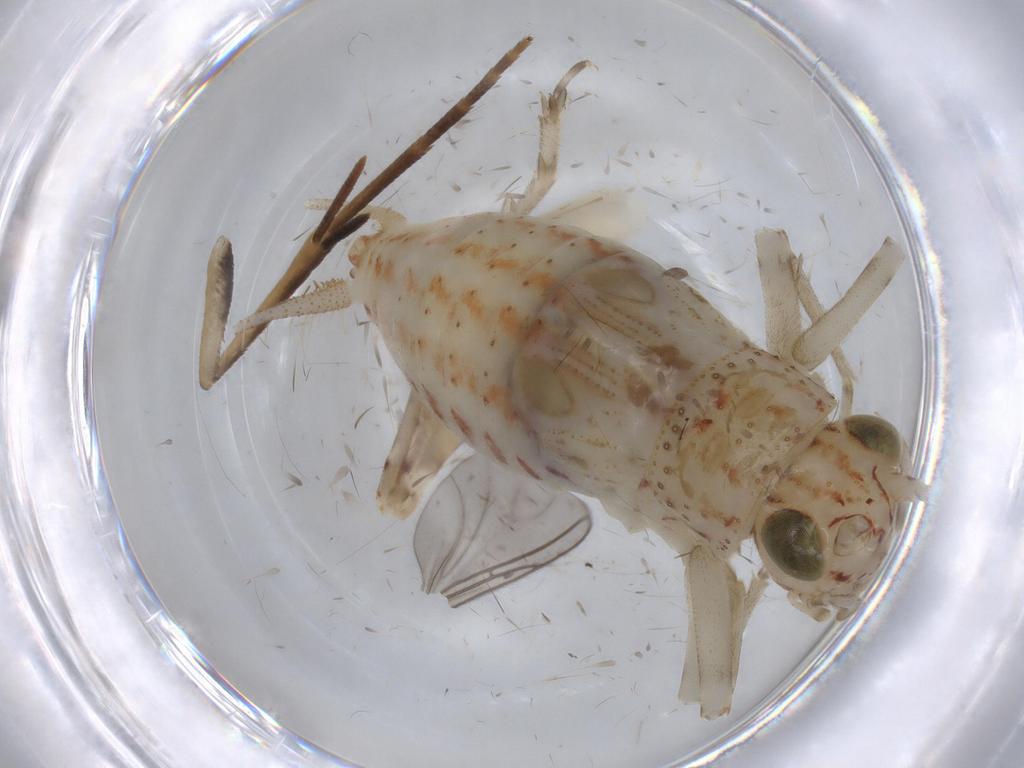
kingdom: Animalia
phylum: Arthropoda
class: Insecta
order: Orthoptera
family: Trigonidiidae
